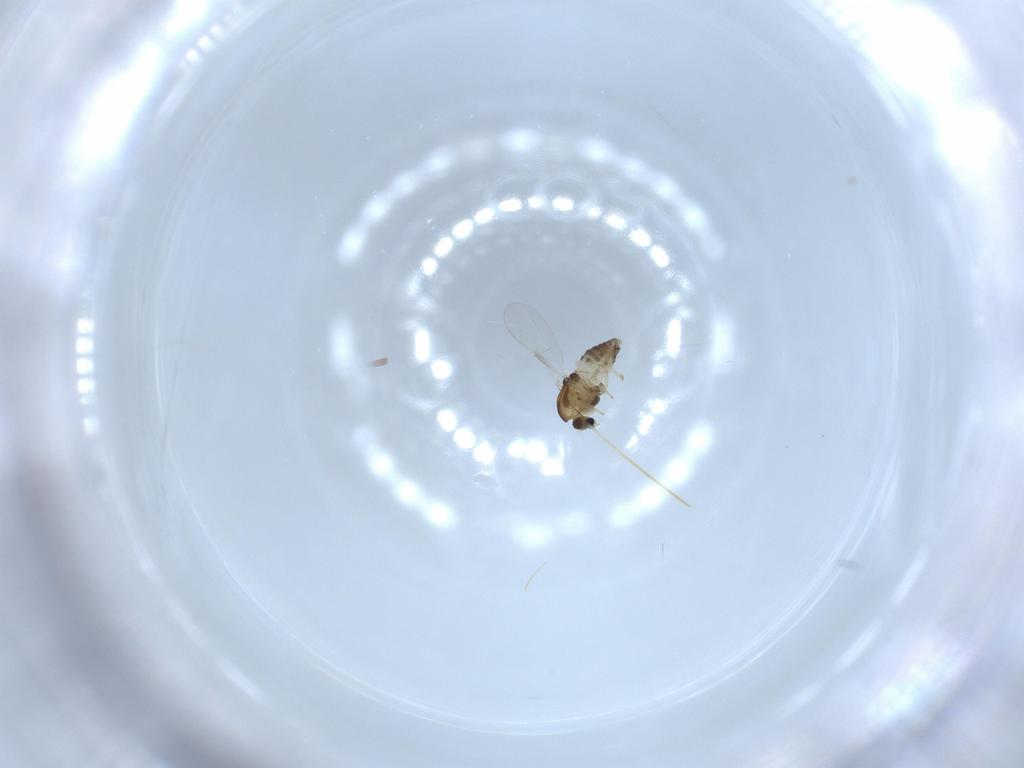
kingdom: Animalia
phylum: Arthropoda
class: Insecta
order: Diptera
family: Chironomidae
